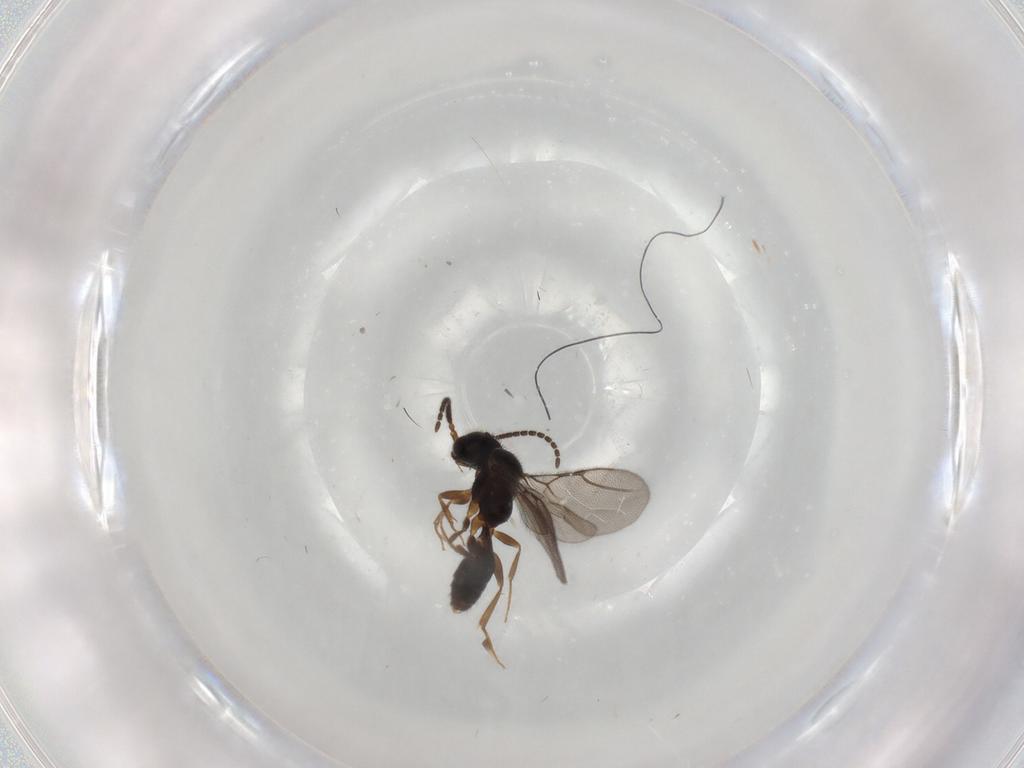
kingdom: Animalia
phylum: Arthropoda
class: Insecta
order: Hymenoptera
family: Bethylidae
